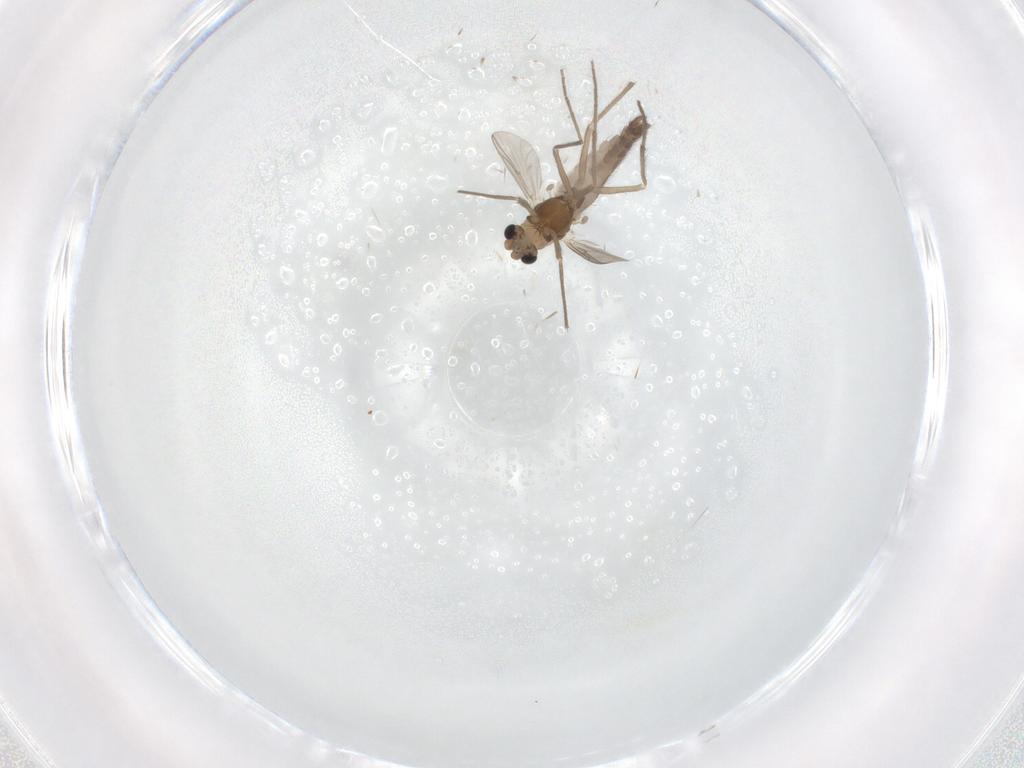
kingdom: Animalia
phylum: Arthropoda
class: Insecta
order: Diptera
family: Chironomidae
